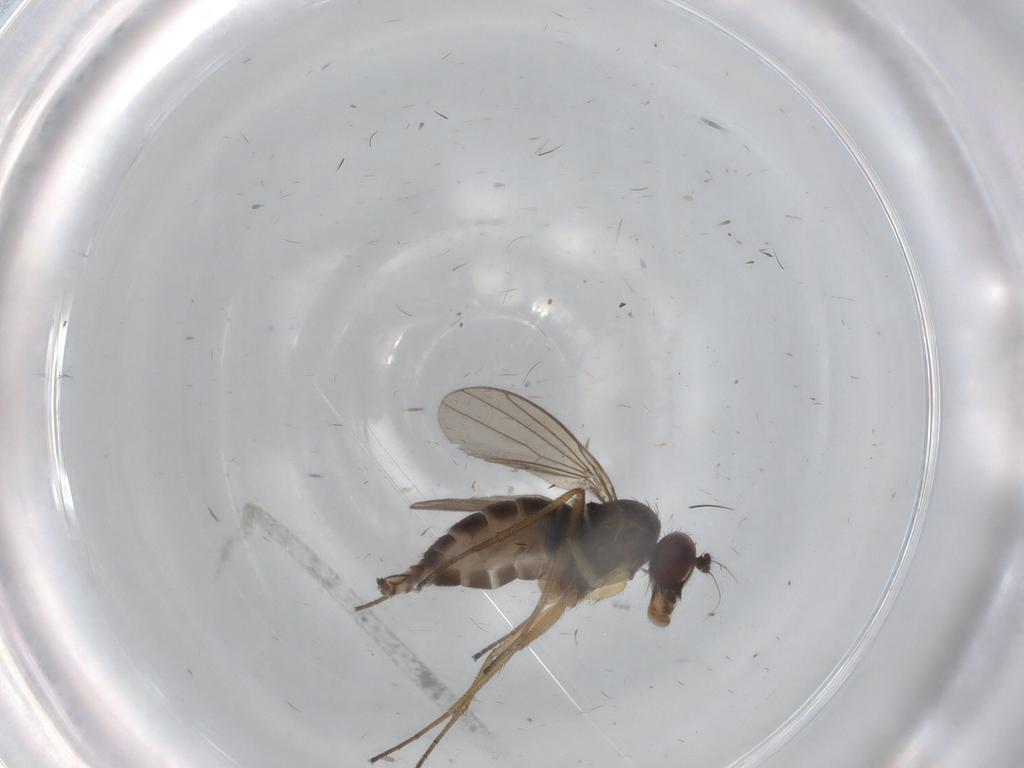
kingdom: Animalia
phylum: Arthropoda
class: Insecta
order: Diptera
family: Dolichopodidae
